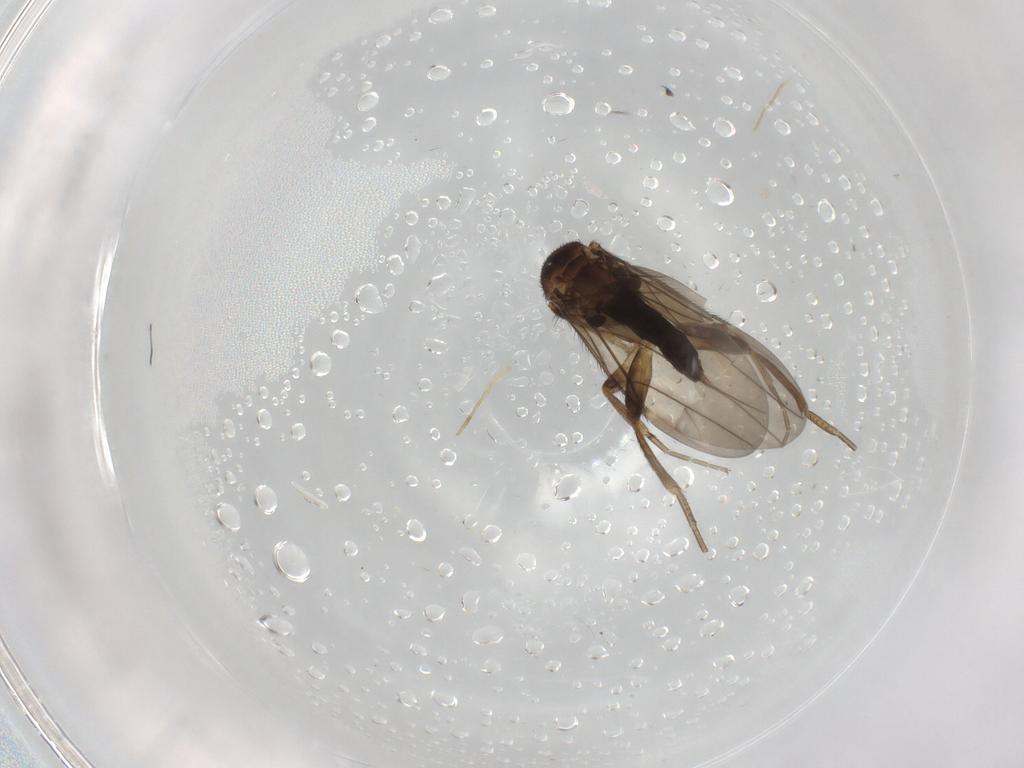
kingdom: Animalia
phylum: Arthropoda
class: Insecta
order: Diptera
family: Phoridae
